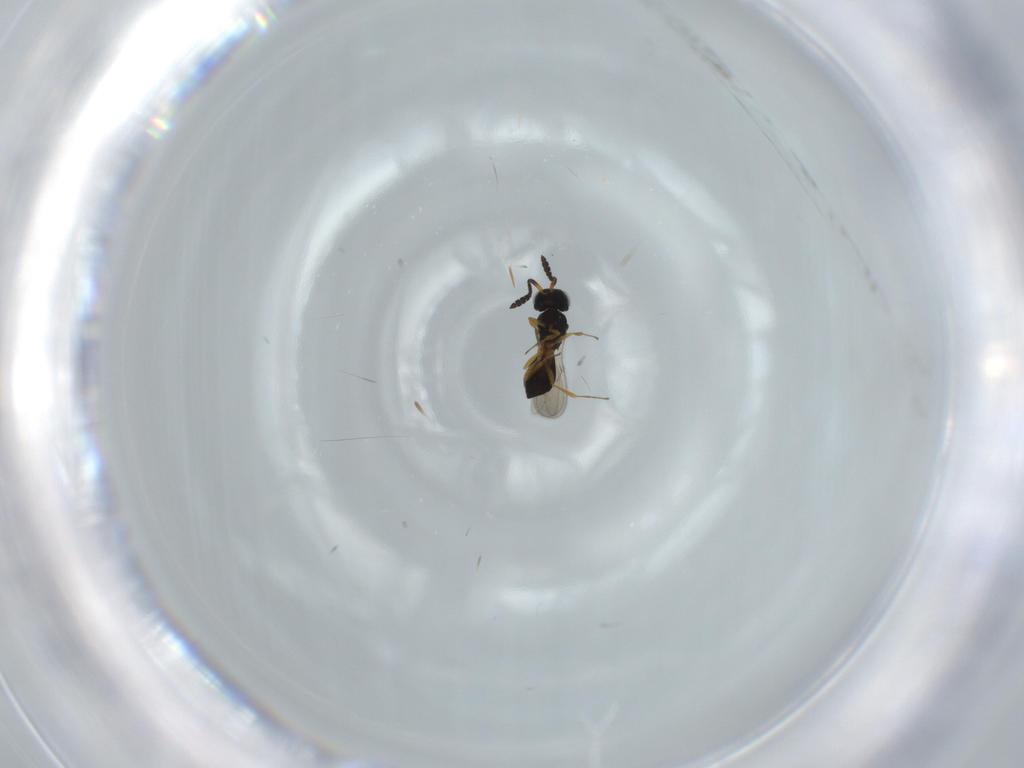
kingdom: Animalia
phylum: Arthropoda
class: Insecta
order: Hymenoptera
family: Scelionidae
